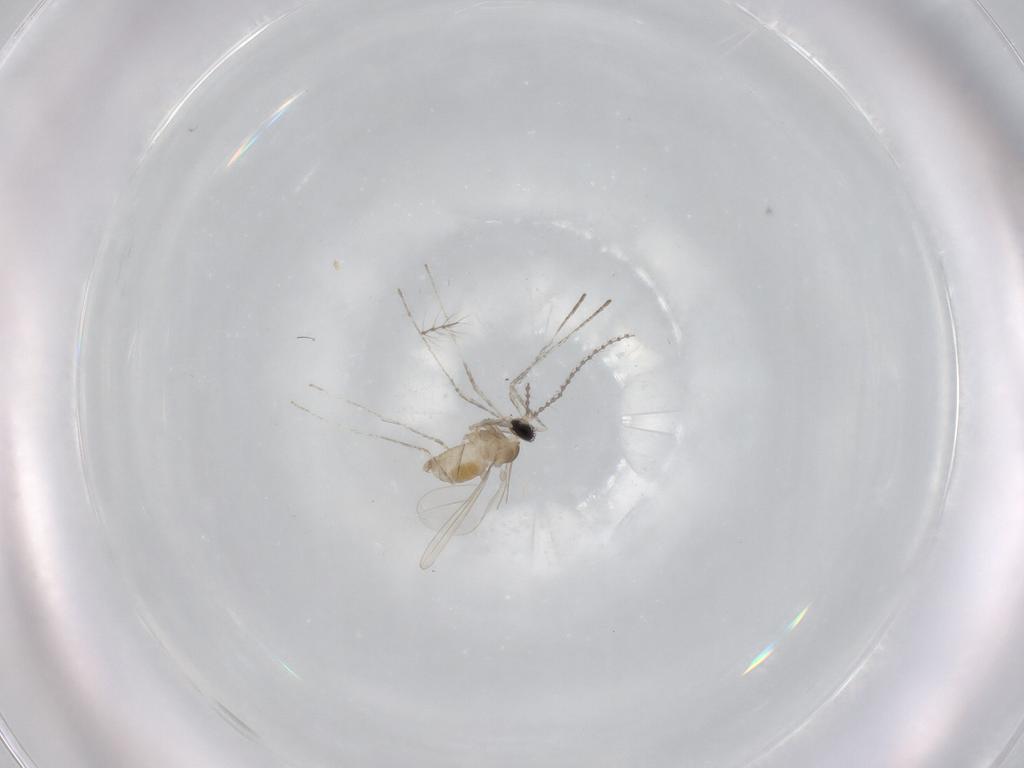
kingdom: Animalia
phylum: Arthropoda
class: Insecta
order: Diptera
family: Cecidomyiidae
